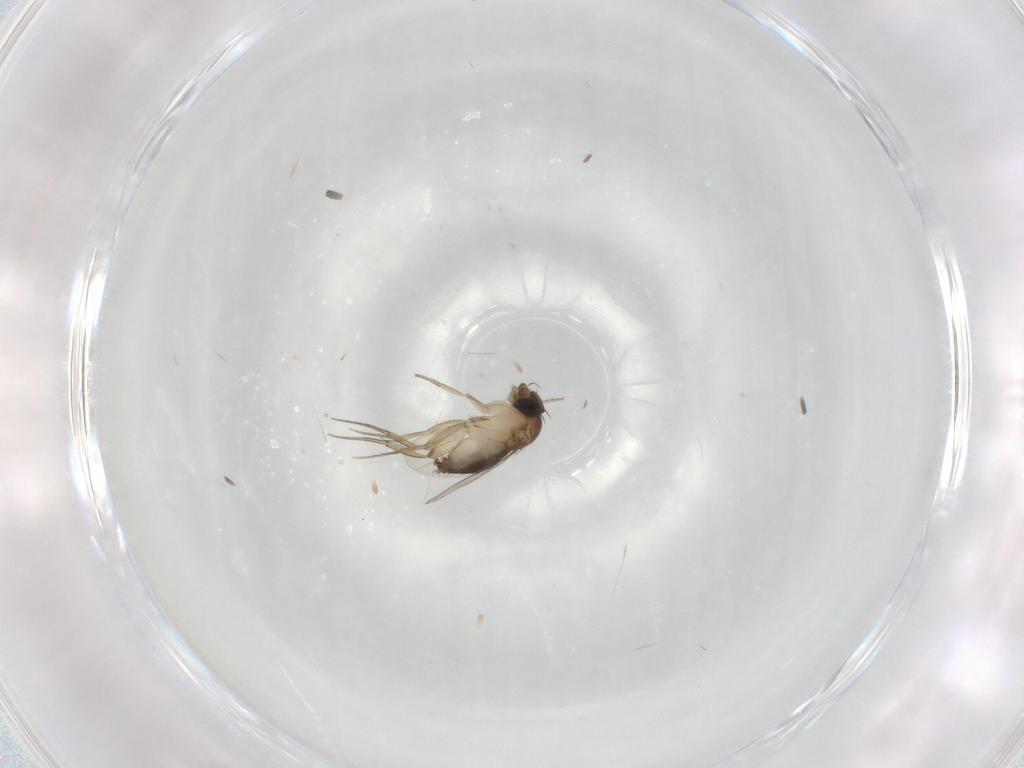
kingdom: Animalia
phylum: Arthropoda
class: Insecta
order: Diptera
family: Phoridae
